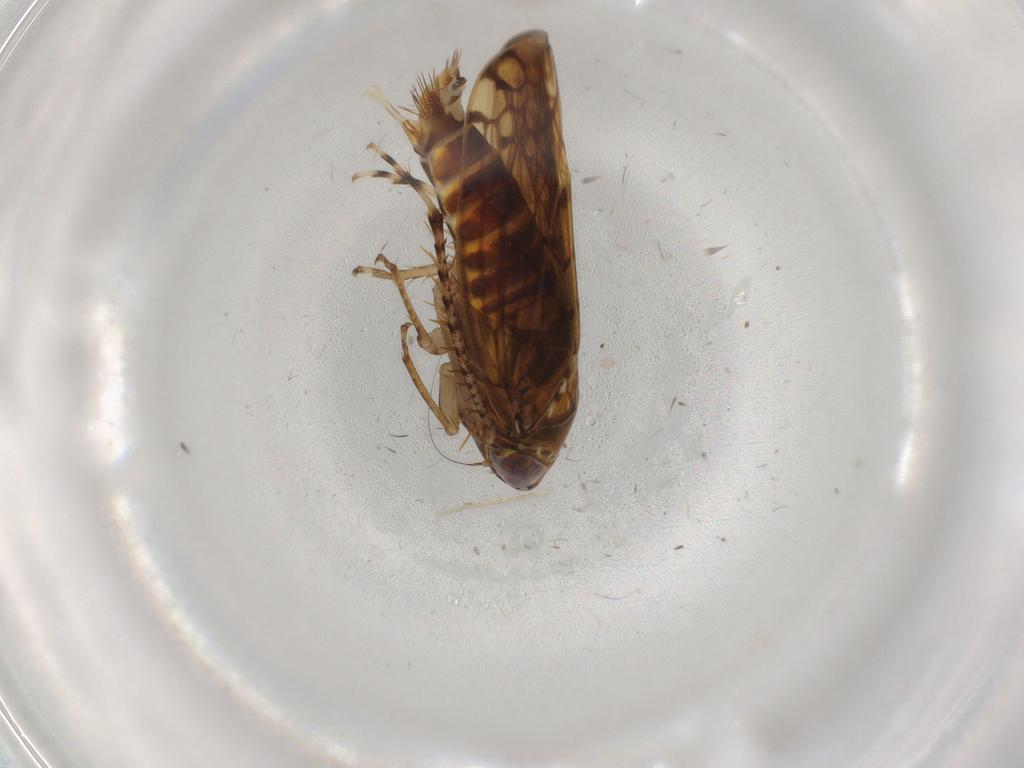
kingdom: Animalia
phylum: Arthropoda
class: Insecta
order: Hemiptera
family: Cicadellidae
